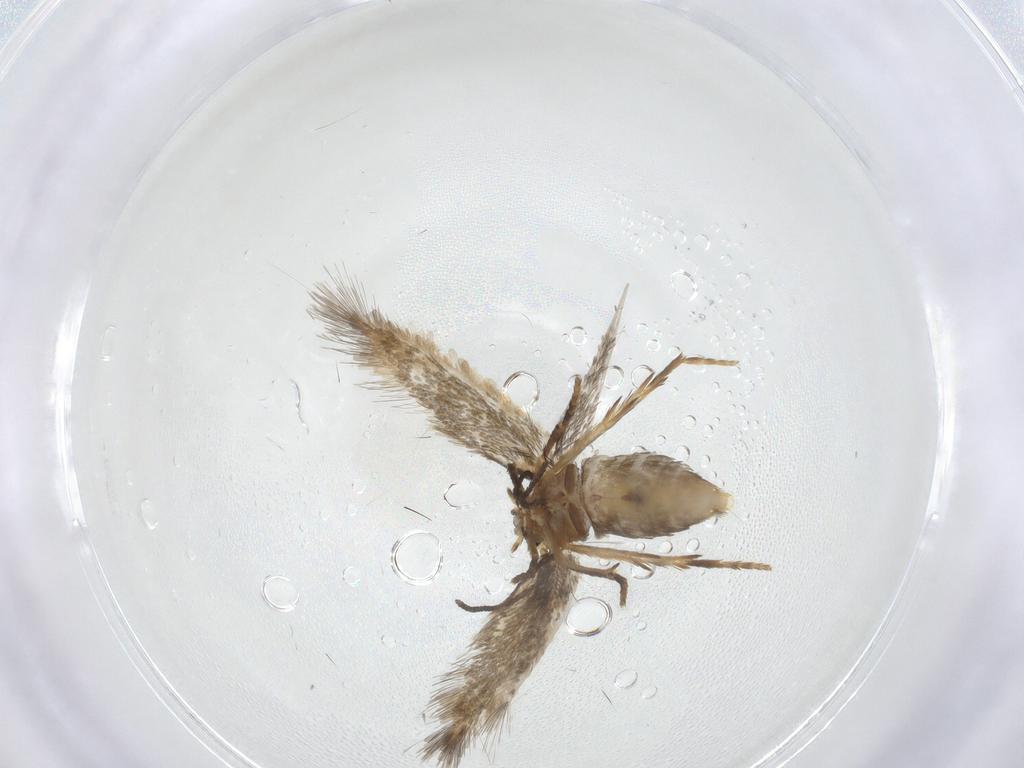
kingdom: Animalia
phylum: Arthropoda
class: Insecta
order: Lepidoptera
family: Nepticulidae
